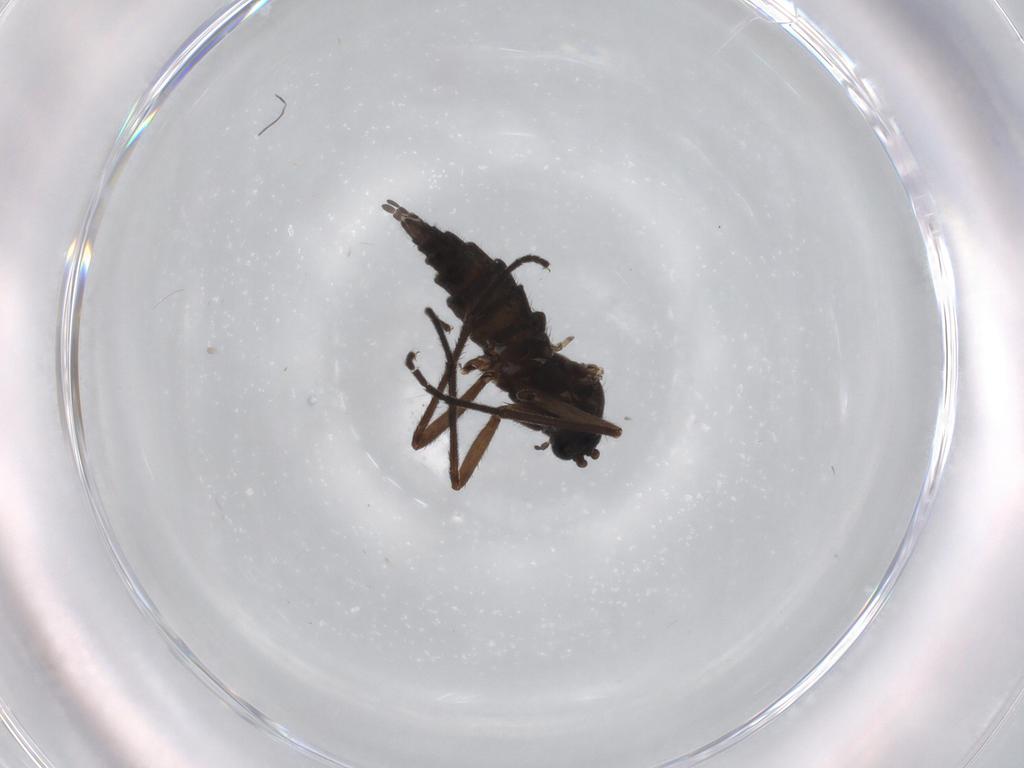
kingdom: Animalia
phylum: Arthropoda
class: Insecta
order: Diptera
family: Sciaridae
